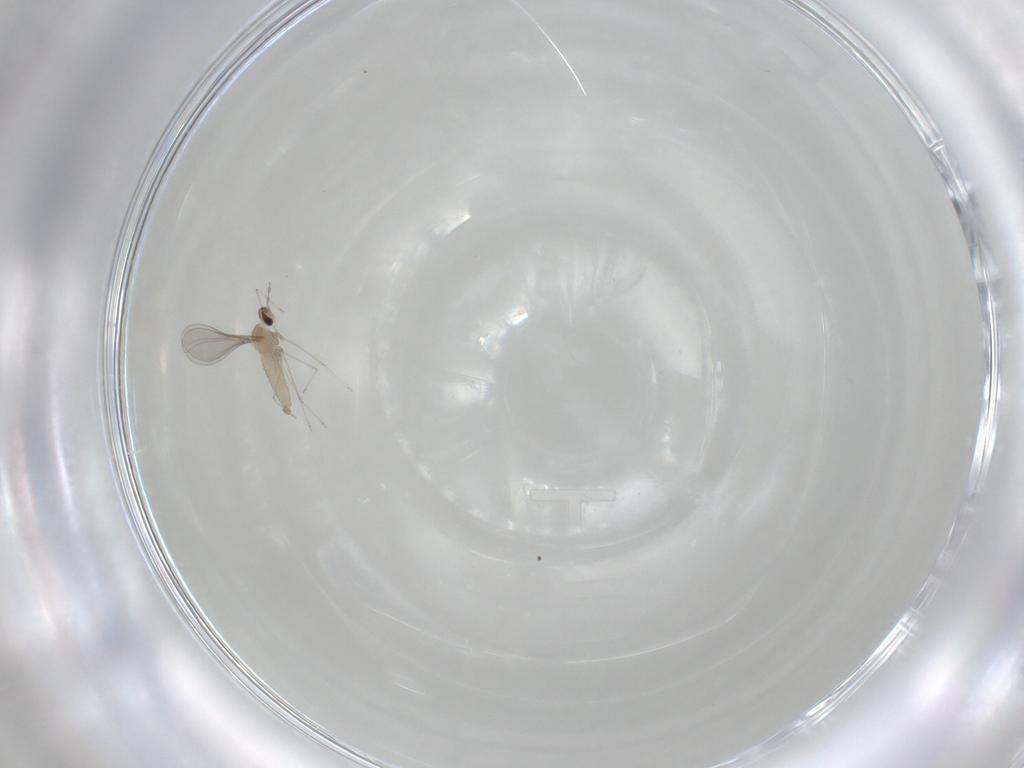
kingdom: Animalia
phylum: Arthropoda
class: Insecta
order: Diptera
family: Cecidomyiidae
